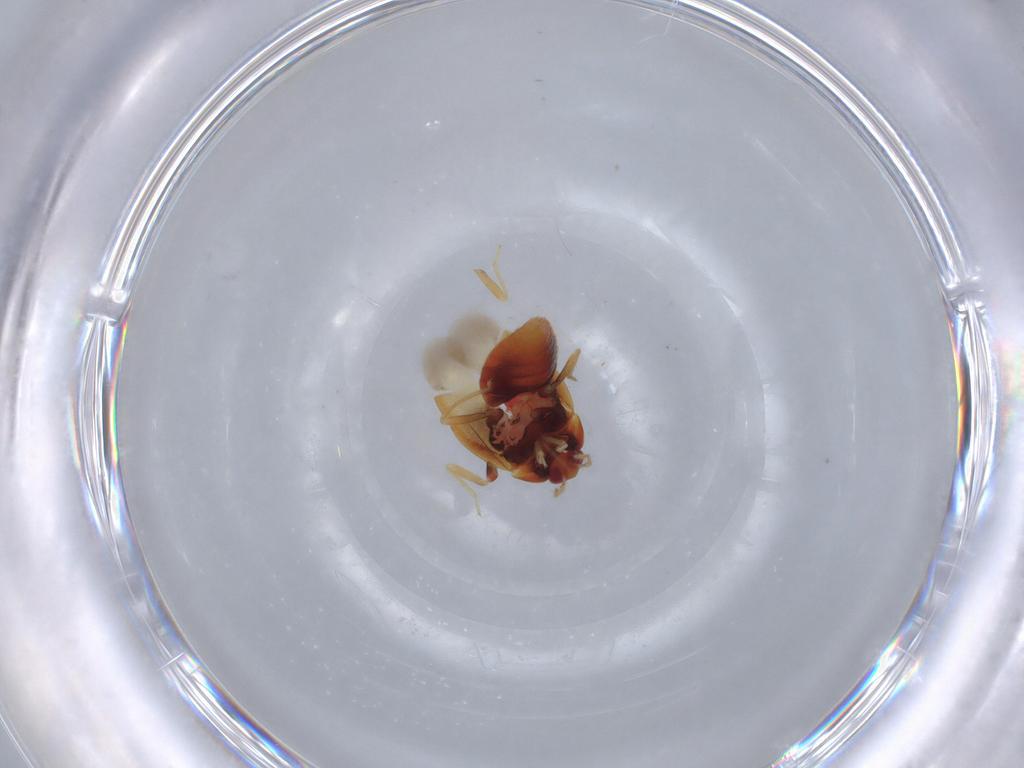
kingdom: Animalia
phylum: Arthropoda
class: Insecta
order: Hemiptera
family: Anthocoridae
